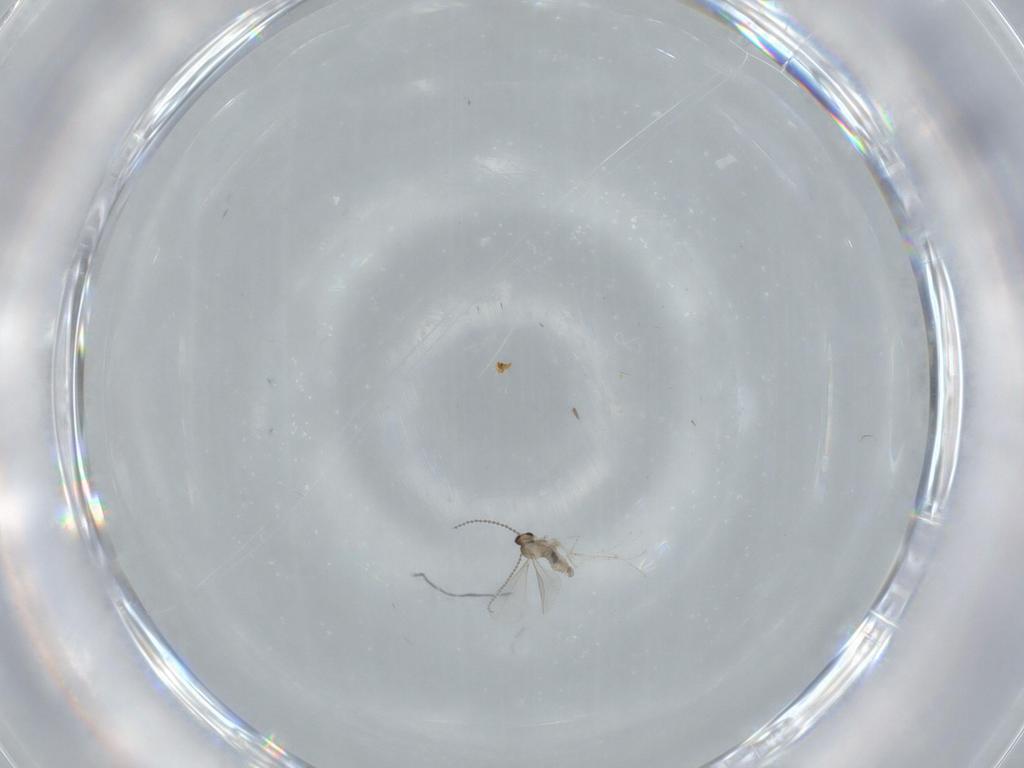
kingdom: Animalia
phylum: Arthropoda
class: Insecta
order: Diptera
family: Cecidomyiidae
